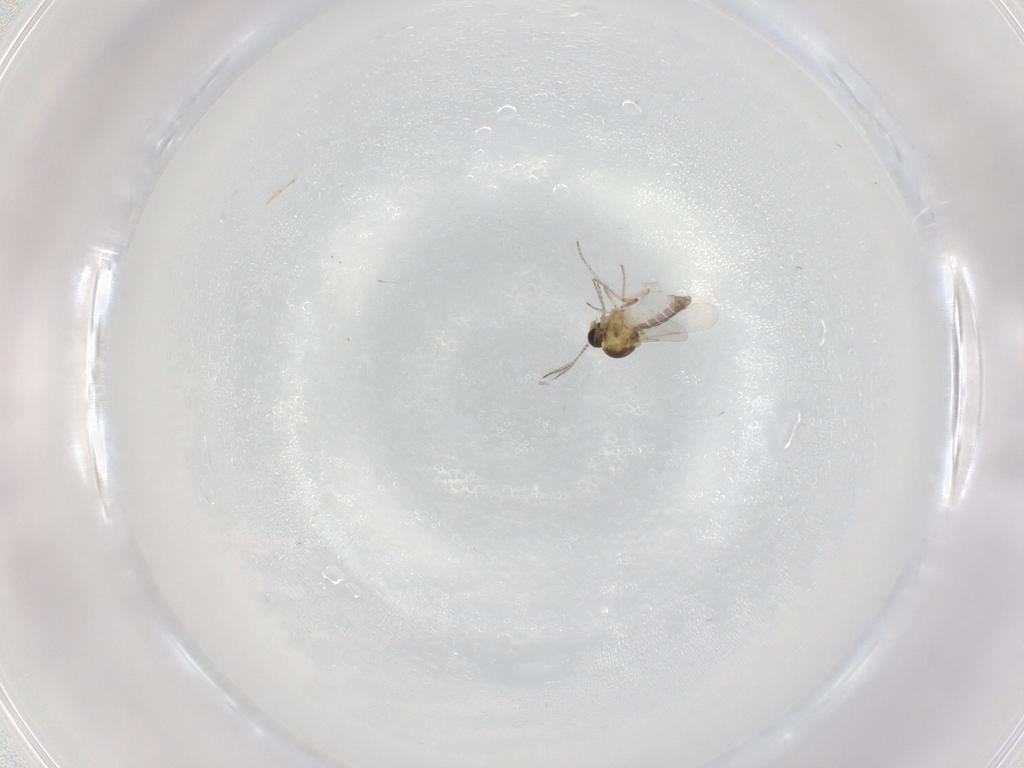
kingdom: Animalia
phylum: Arthropoda
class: Insecta
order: Diptera
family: Ceratopogonidae
